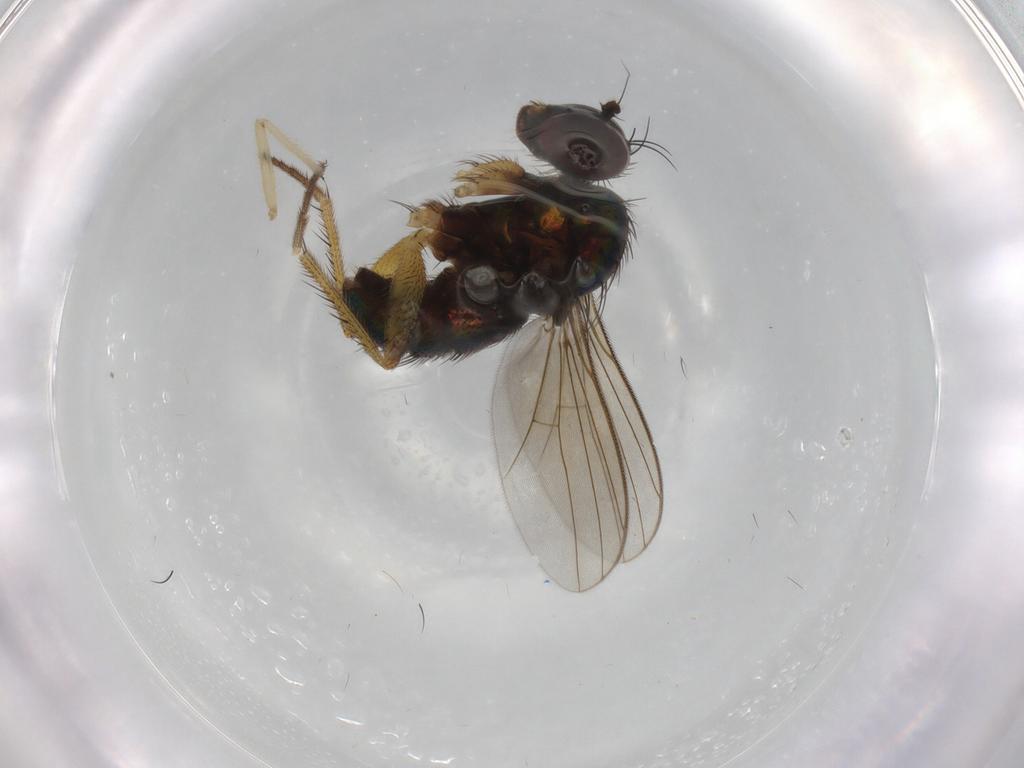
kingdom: Animalia
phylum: Arthropoda
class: Insecta
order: Diptera
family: Dolichopodidae
